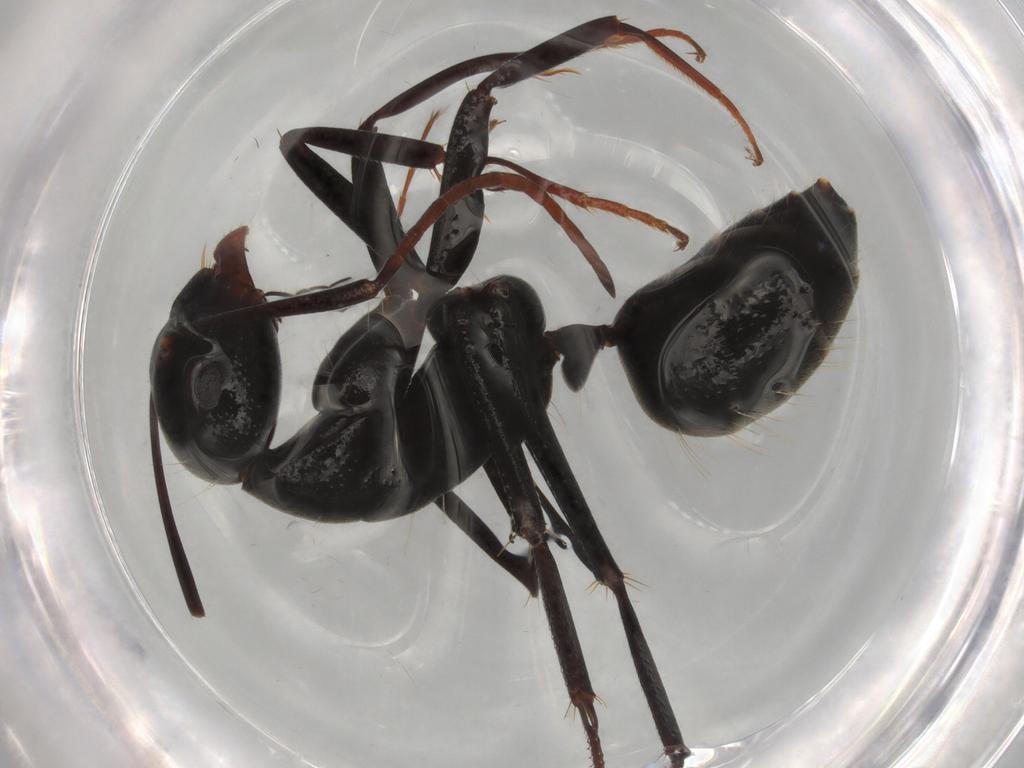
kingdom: Animalia
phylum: Arthropoda
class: Insecta
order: Hymenoptera
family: Formicidae
